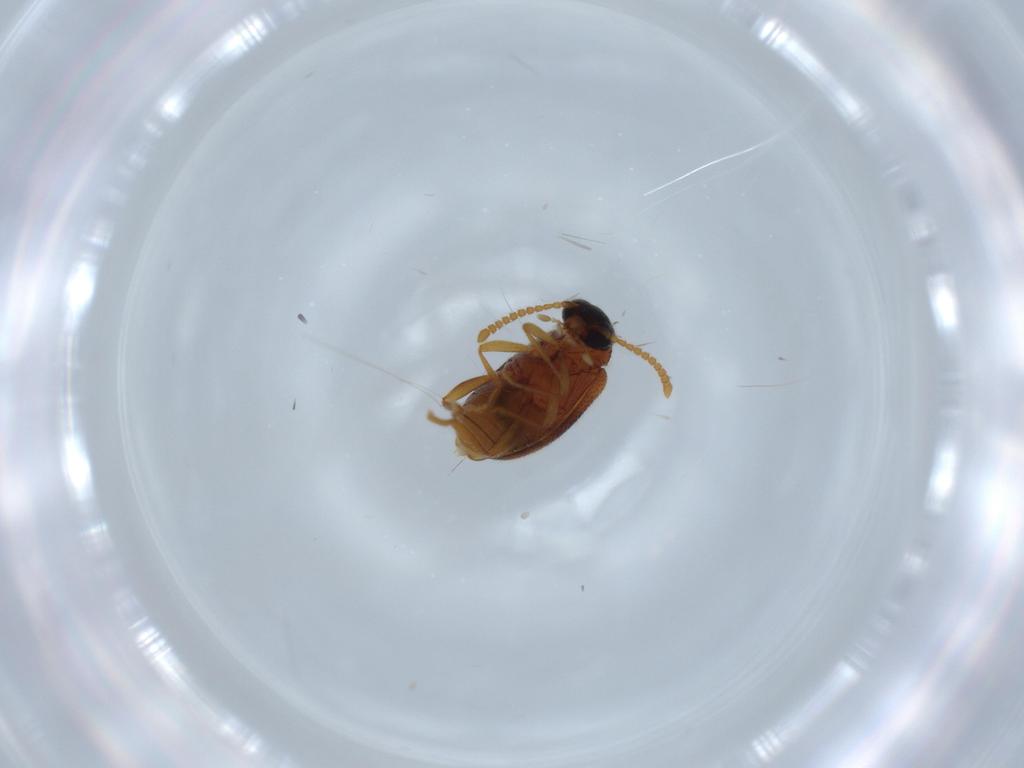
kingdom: Animalia
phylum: Arthropoda
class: Insecta
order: Coleoptera
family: Aderidae
